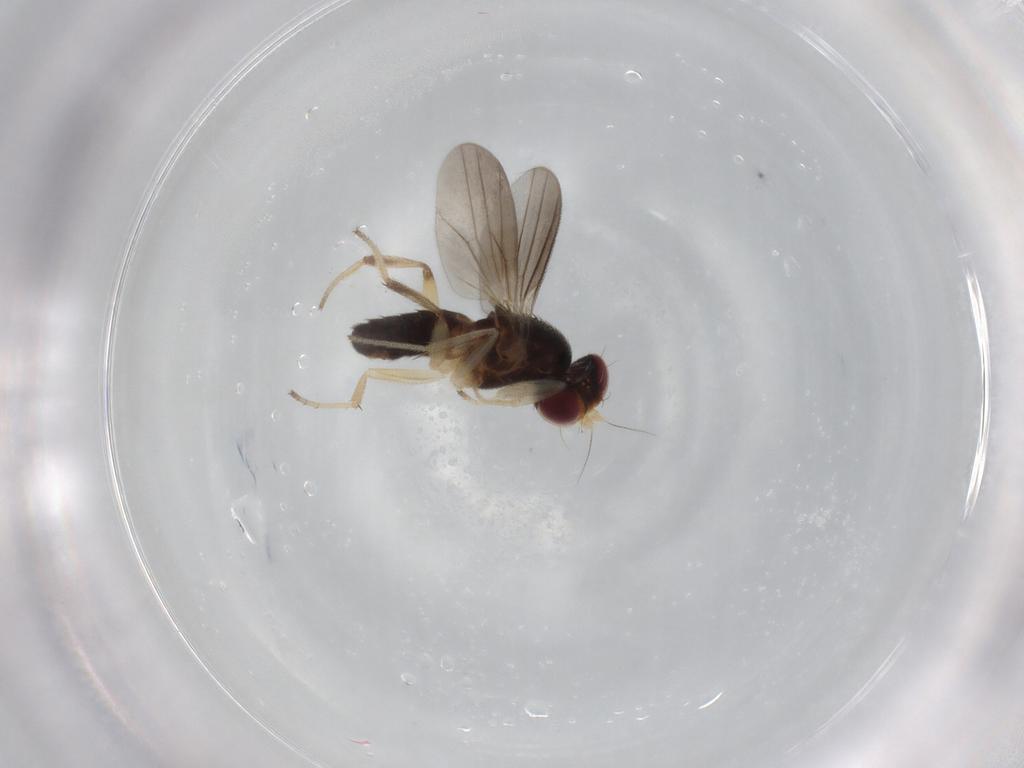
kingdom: Animalia
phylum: Arthropoda
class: Insecta
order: Diptera
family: Clusiidae
